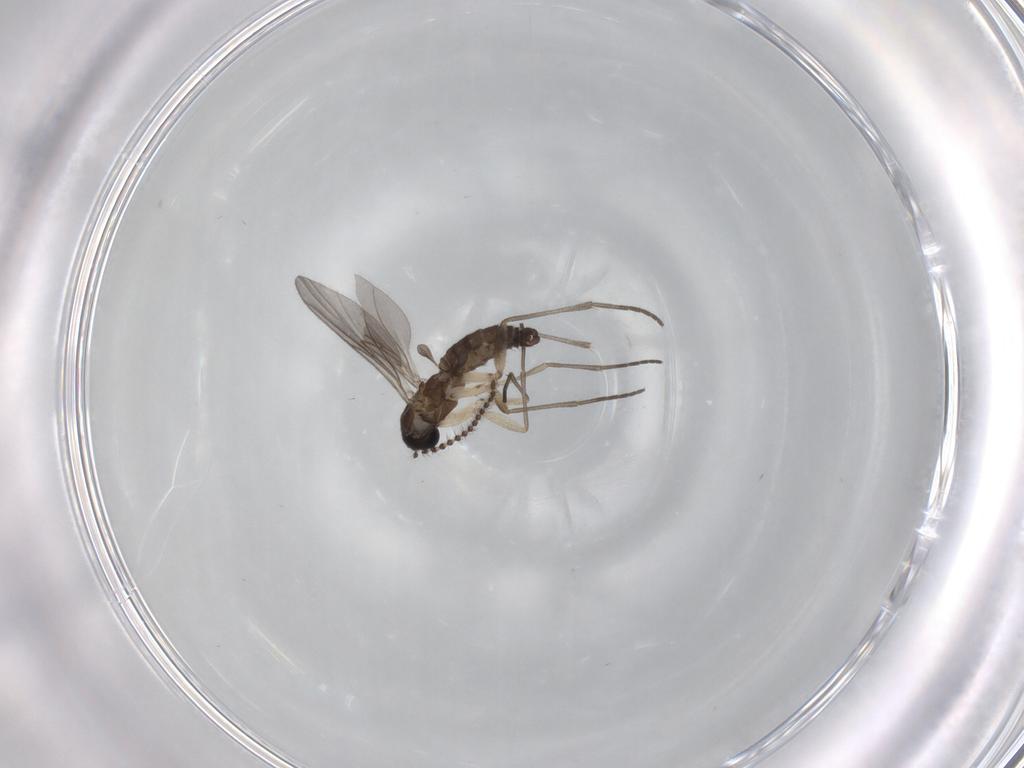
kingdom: Animalia
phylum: Arthropoda
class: Insecta
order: Diptera
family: Sciaridae
